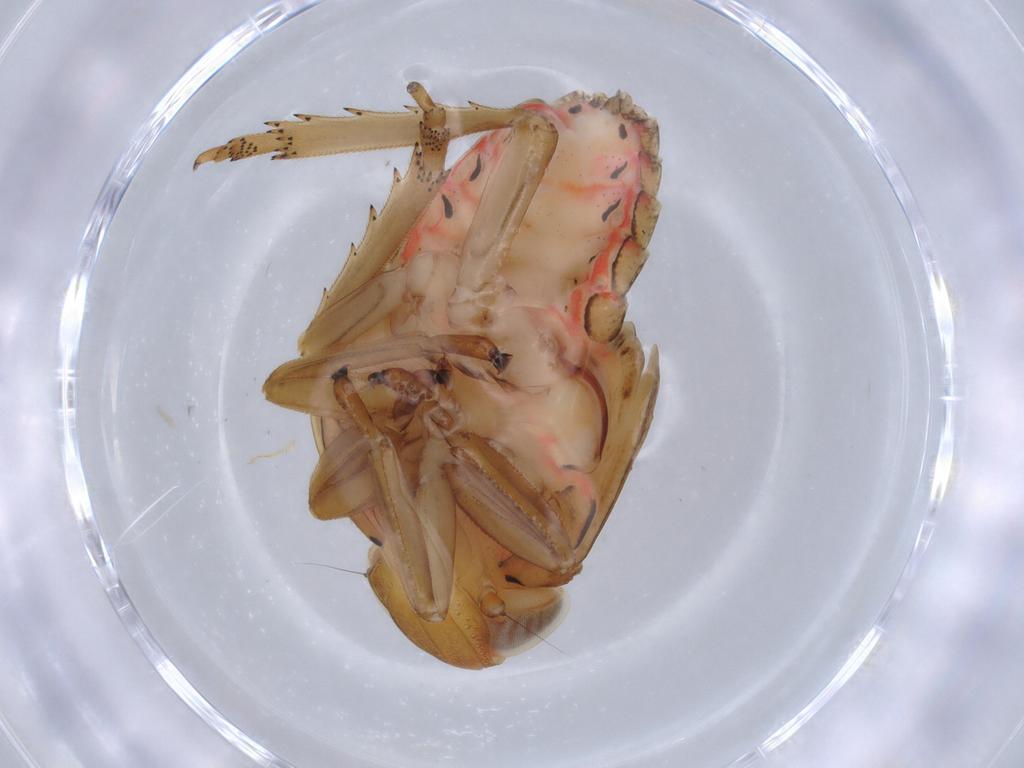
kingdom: Animalia
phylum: Arthropoda
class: Insecta
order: Hemiptera
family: Flatidae
